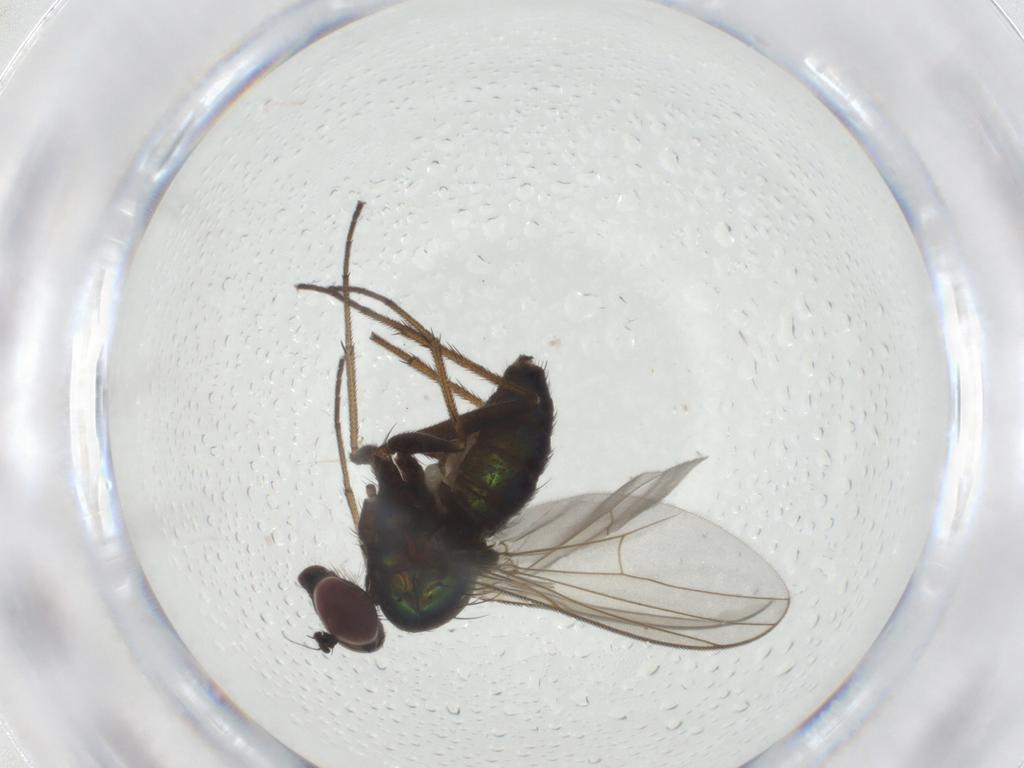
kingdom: Animalia
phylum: Arthropoda
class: Insecta
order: Diptera
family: Dolichopodidae
